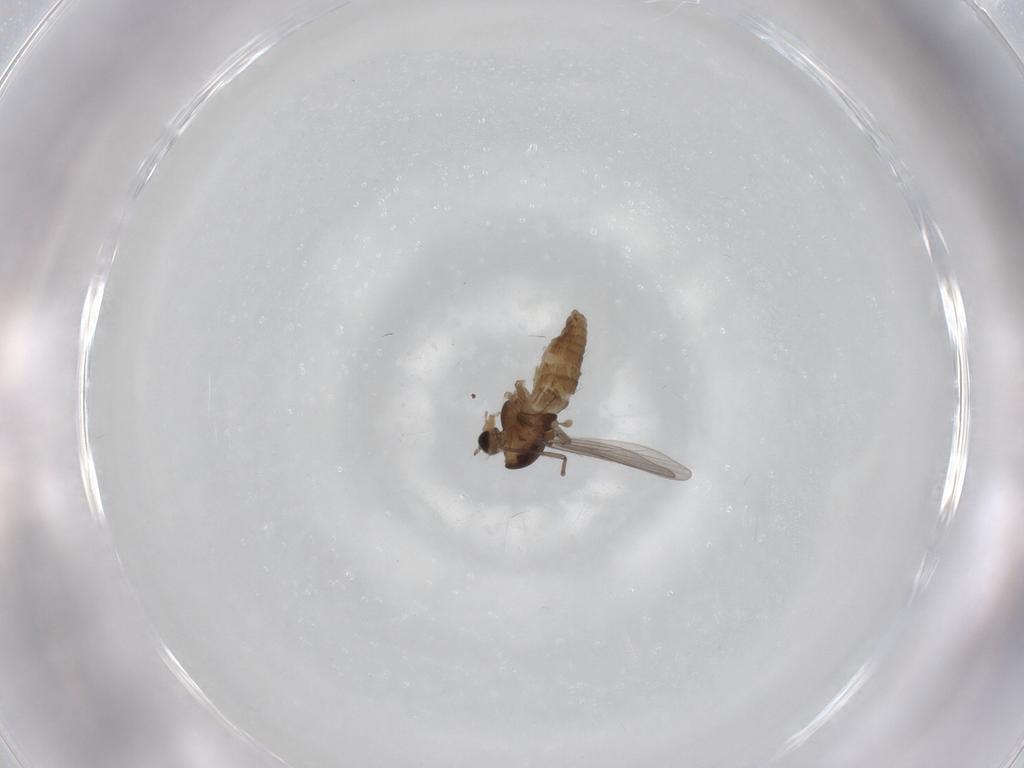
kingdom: Animalia
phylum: Arthropoda
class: Insecta
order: Diptera
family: Chironomidae
